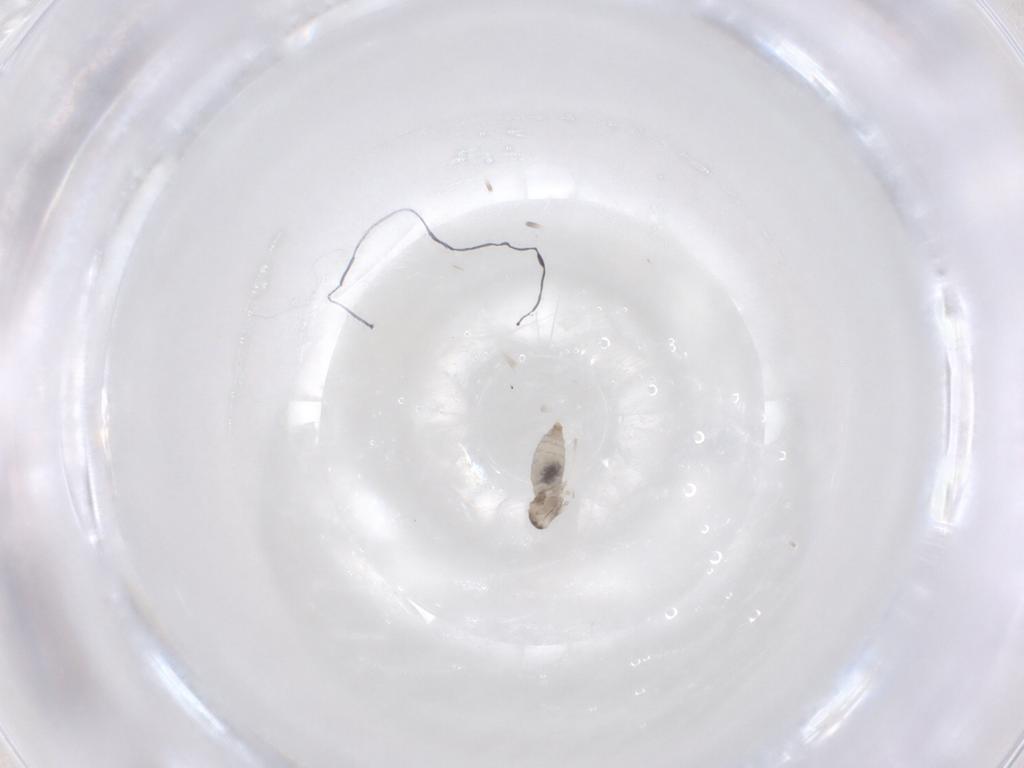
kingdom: Animalia
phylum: Arthropoda
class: Insecta
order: Diptera
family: Cecidomyiidae
